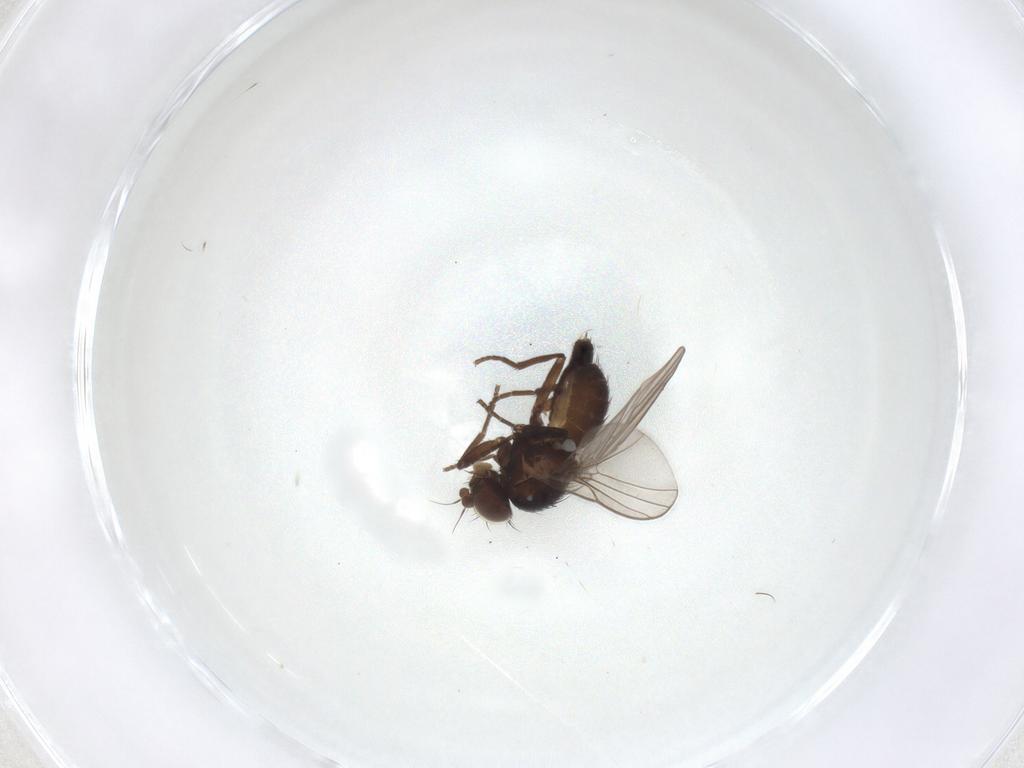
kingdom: Animalia
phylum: Arthropoda
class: Insecta
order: Diptera
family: Agromyzidae
